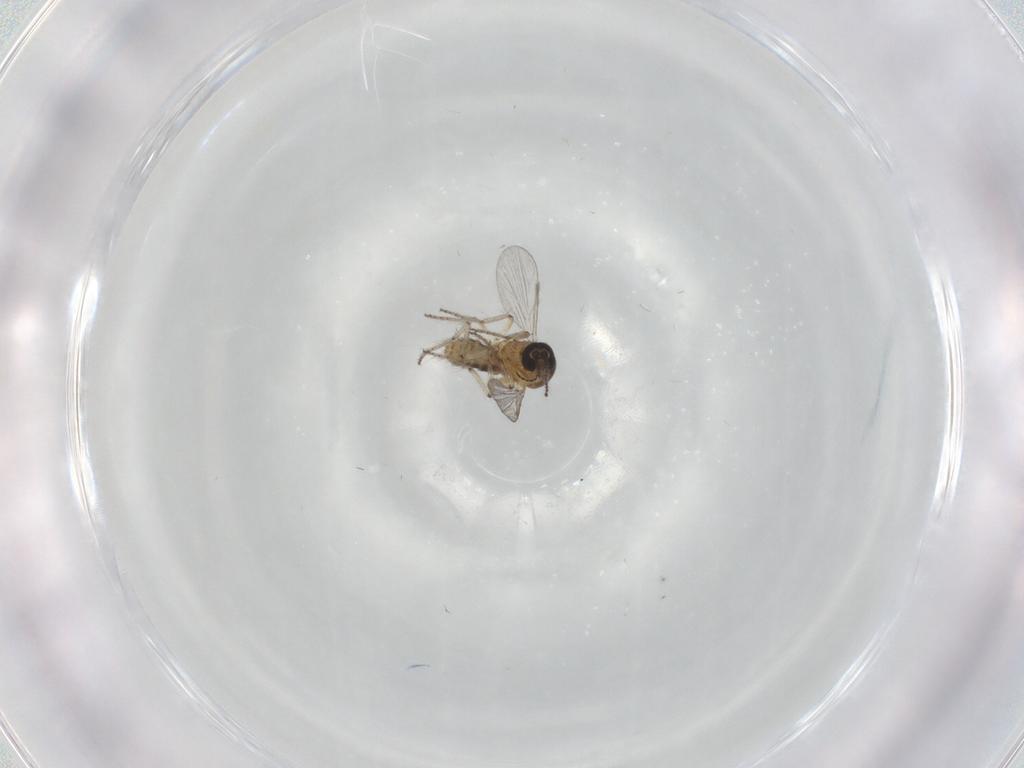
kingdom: Animalia
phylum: Arthropoda
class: Insecta
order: Diptera
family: Ceratopogonidae
